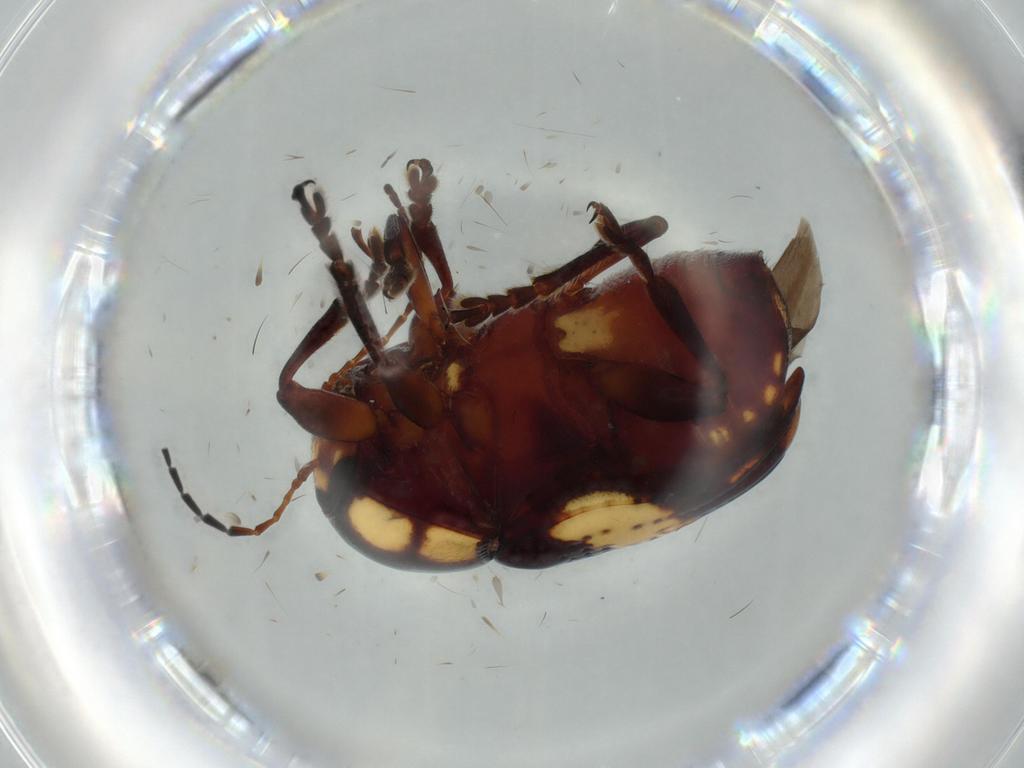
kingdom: Animalia
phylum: Arthropoda
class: Insecta
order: Coleoptera
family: Mycetophagidae
